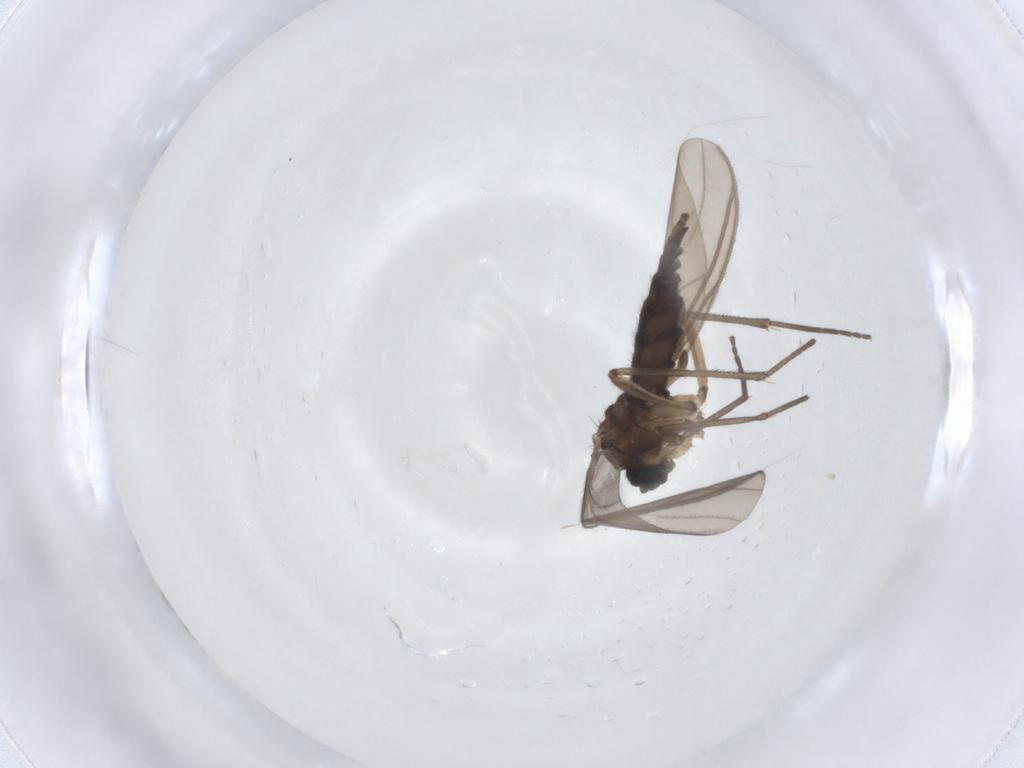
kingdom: Animalia
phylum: Arthropoda
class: Insecta
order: Diptera
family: Sciaridae
